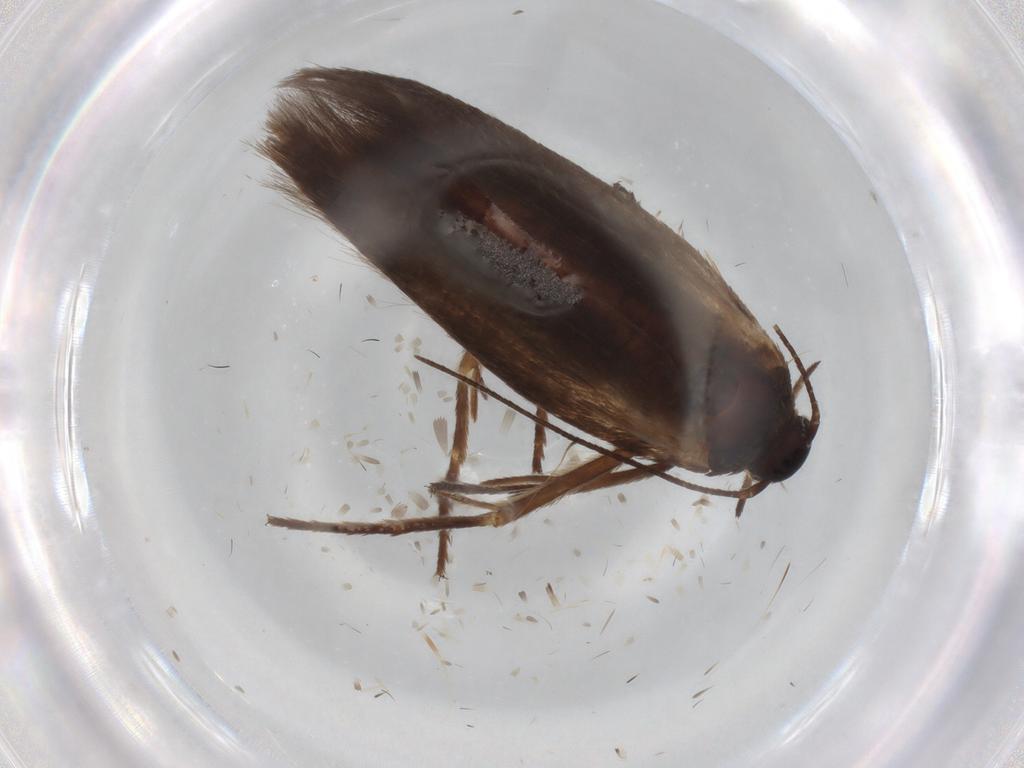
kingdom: Animalia
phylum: Arthropoda
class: Insecta
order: Lepidoptera
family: Scythrididae
